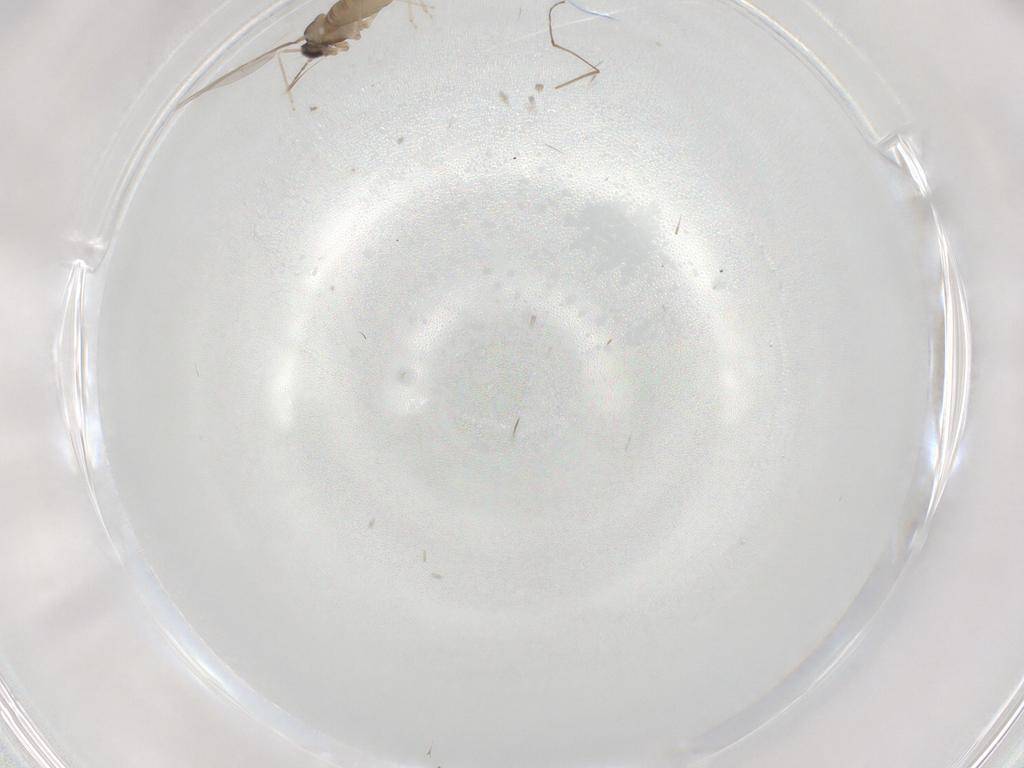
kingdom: Animalia
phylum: Arthropoda
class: Insecta
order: Diptera
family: Cecidomyiidae
